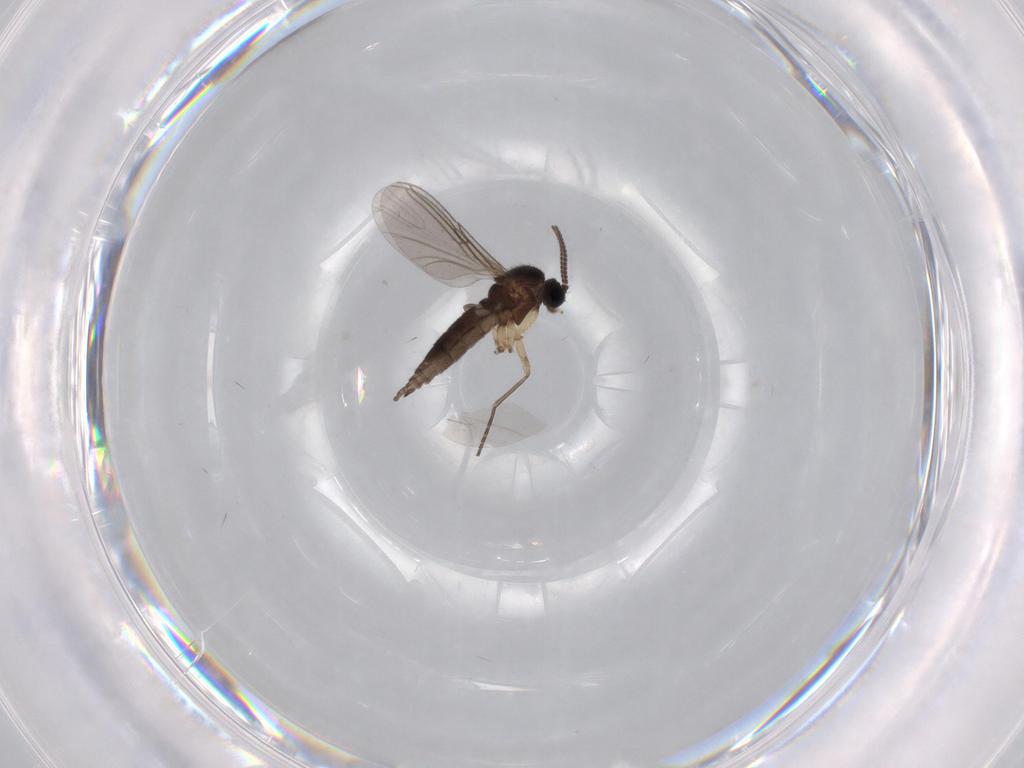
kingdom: Animalia
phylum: Arthropoda
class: Insecta
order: Diptera
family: Sciaridae
